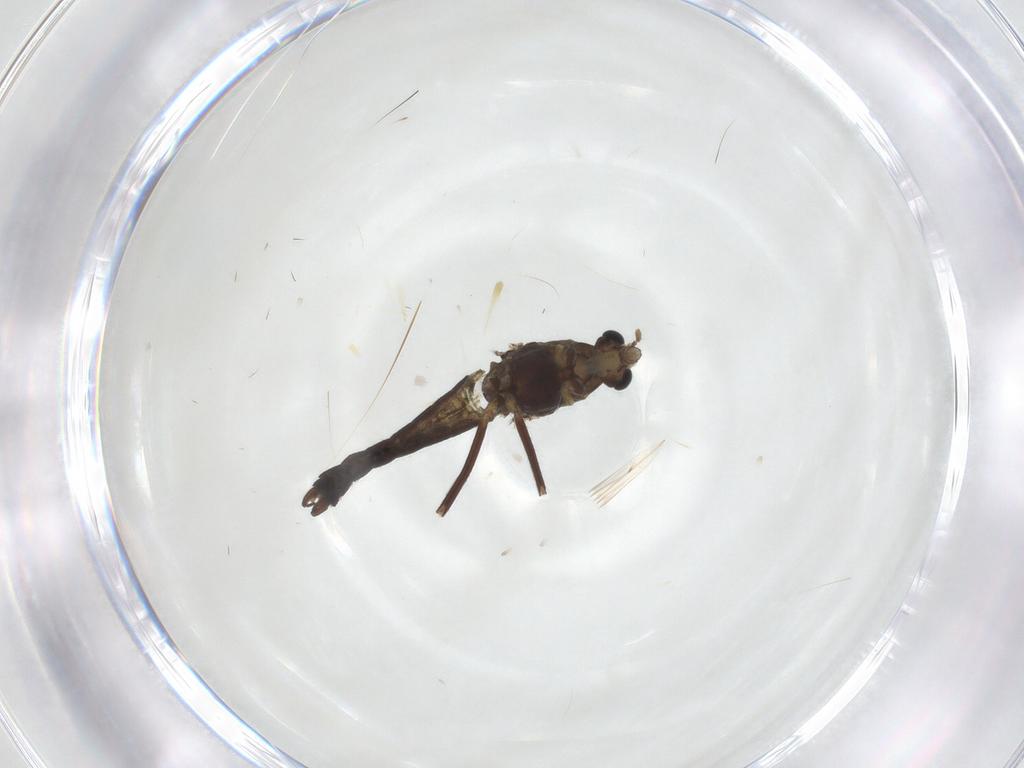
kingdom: Animalia
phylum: Arthropoda
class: Insecta
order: Diptera
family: Chironomidae
